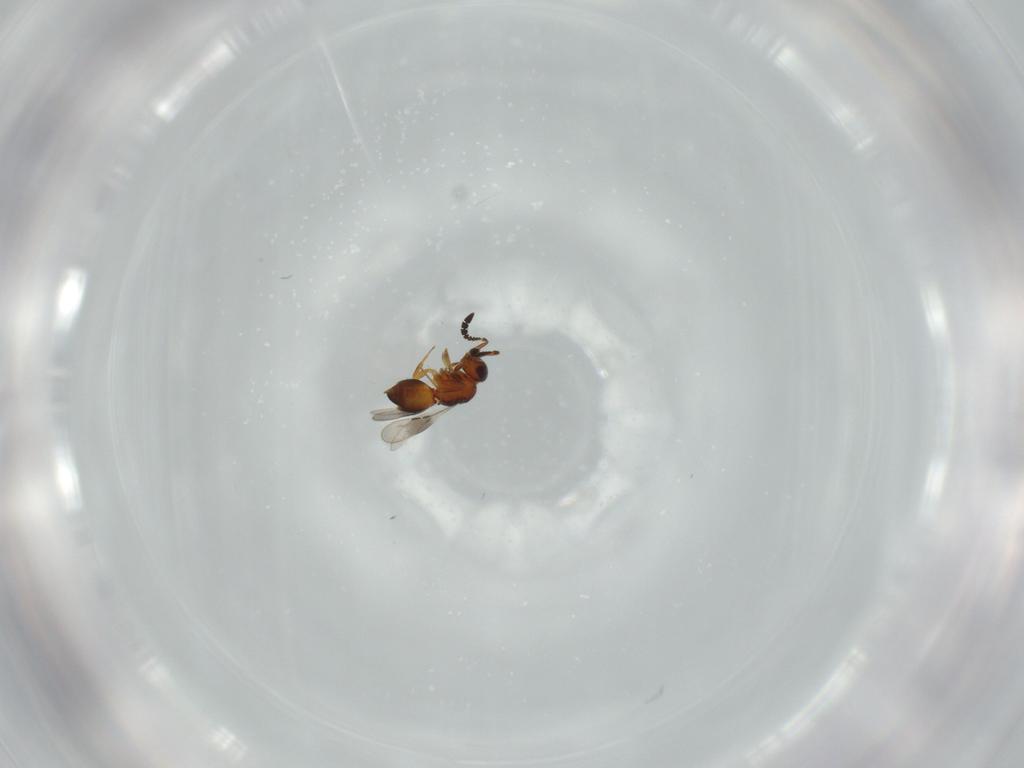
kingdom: Animalia
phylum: Arthropoda
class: Insecta
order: Hymenoptera
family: Ceraphronidae
